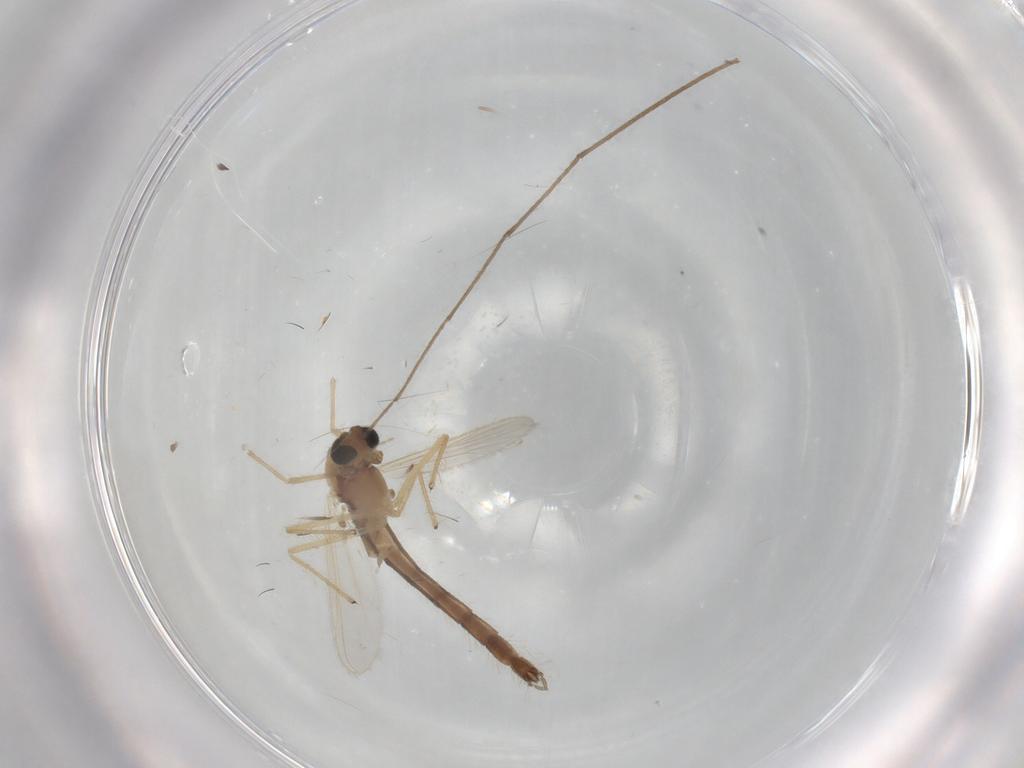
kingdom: Animalia
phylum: Arthropoda
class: Insecta
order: Diptera
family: Chironomidae
